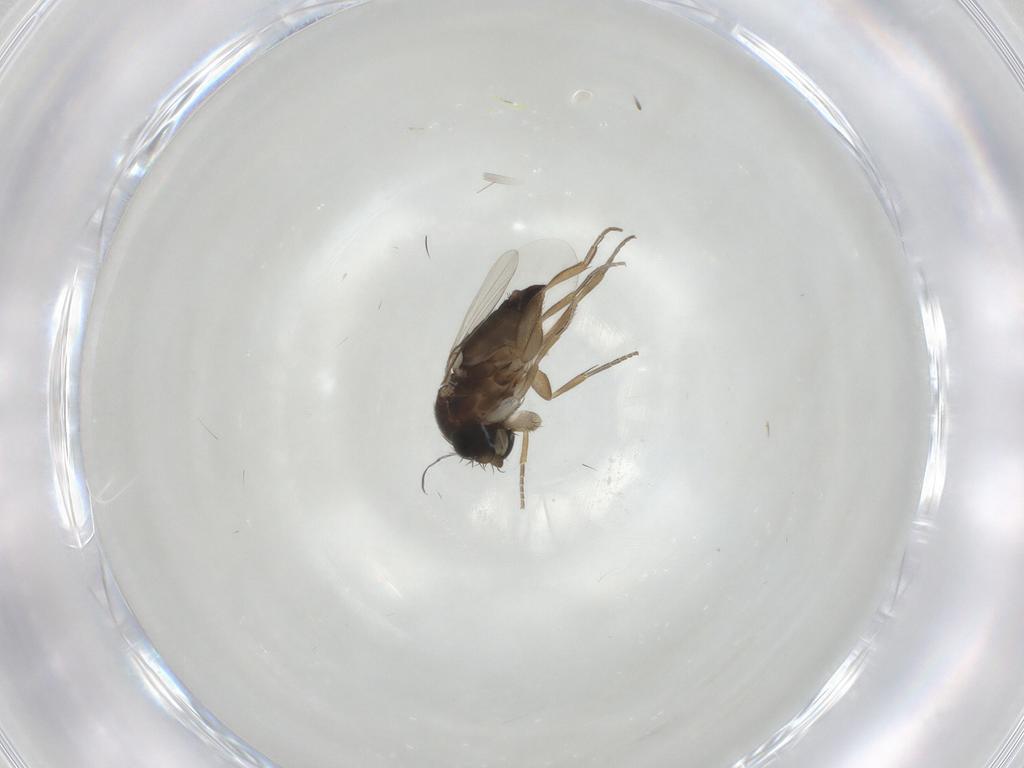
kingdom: Animalia
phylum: Arthropoda
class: Insecta
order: Diptera
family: Phoridae
